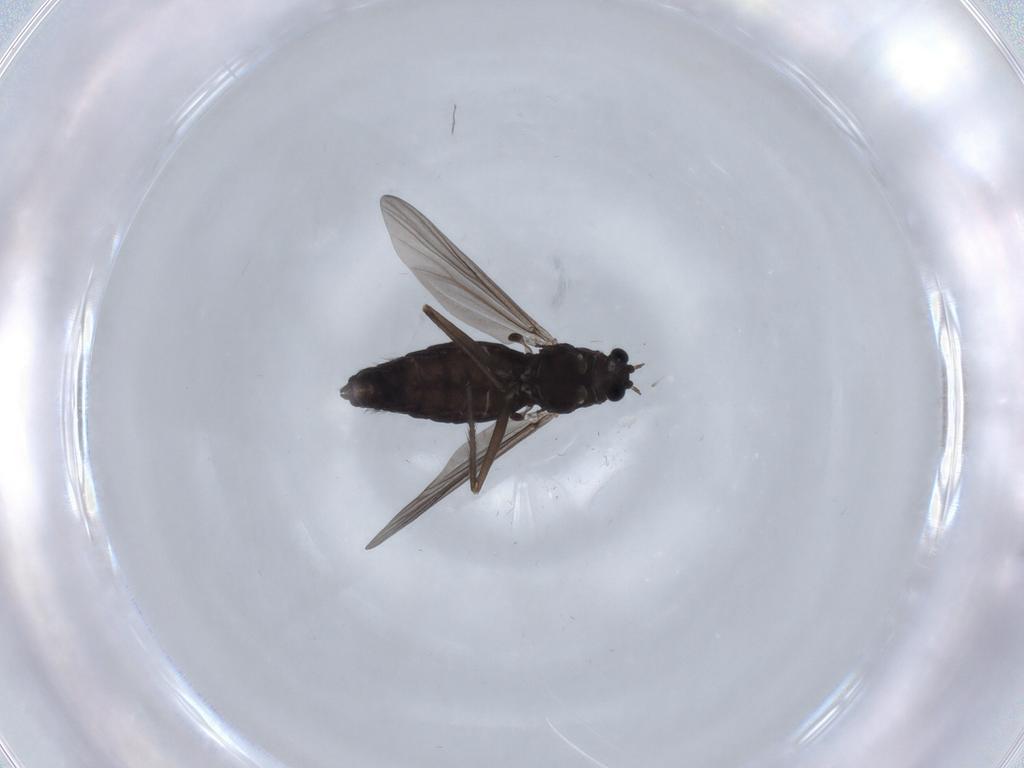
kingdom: Animalia
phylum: Arthropoda
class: Insecta
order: Diptera
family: Chironomidae
